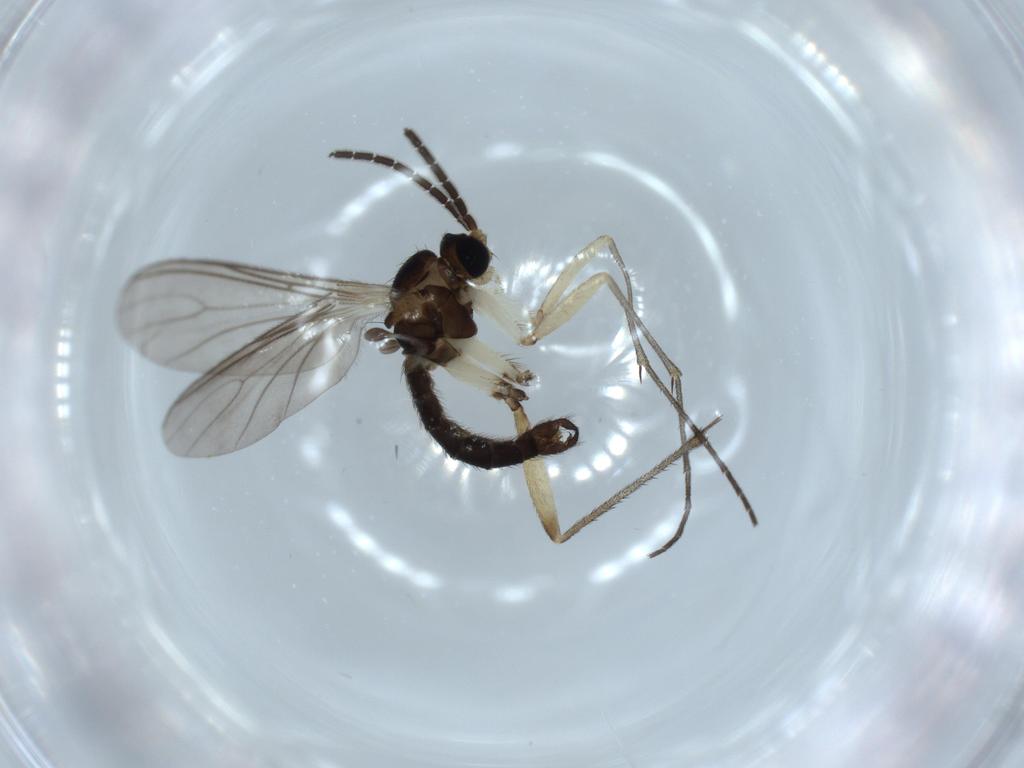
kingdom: Animalia
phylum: Arthropoda
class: Insecta
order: Diptera
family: Sciaridae
